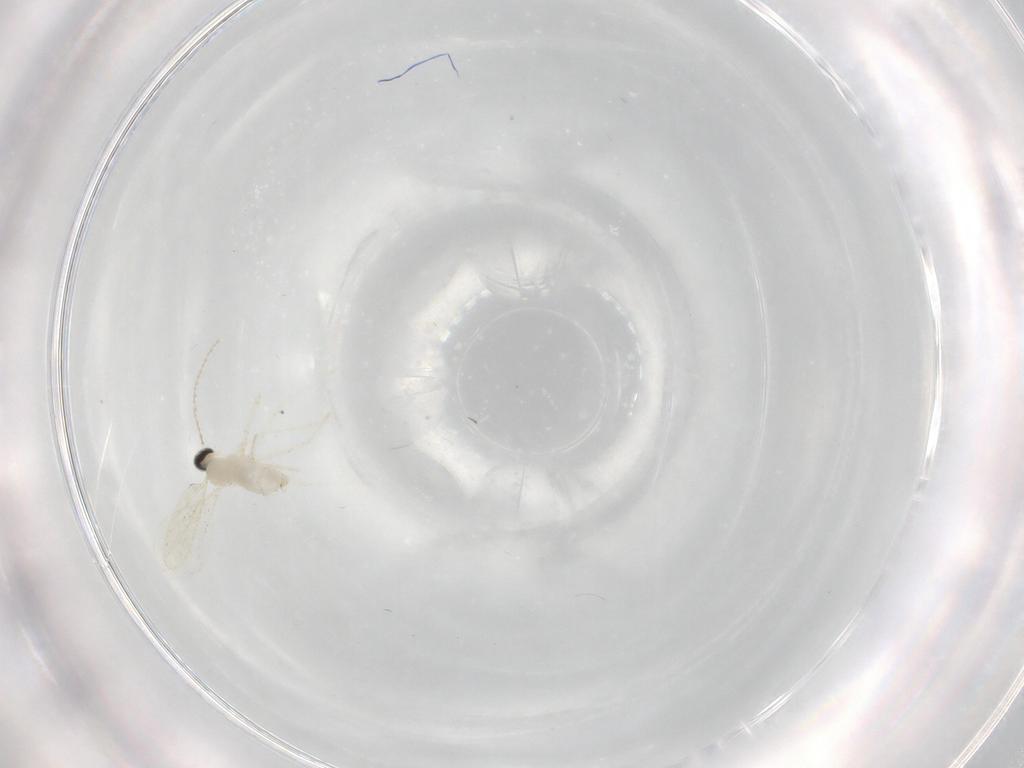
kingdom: Animalia
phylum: Arthropoda
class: Insecta
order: Diptera
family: Cecidomyiidae
